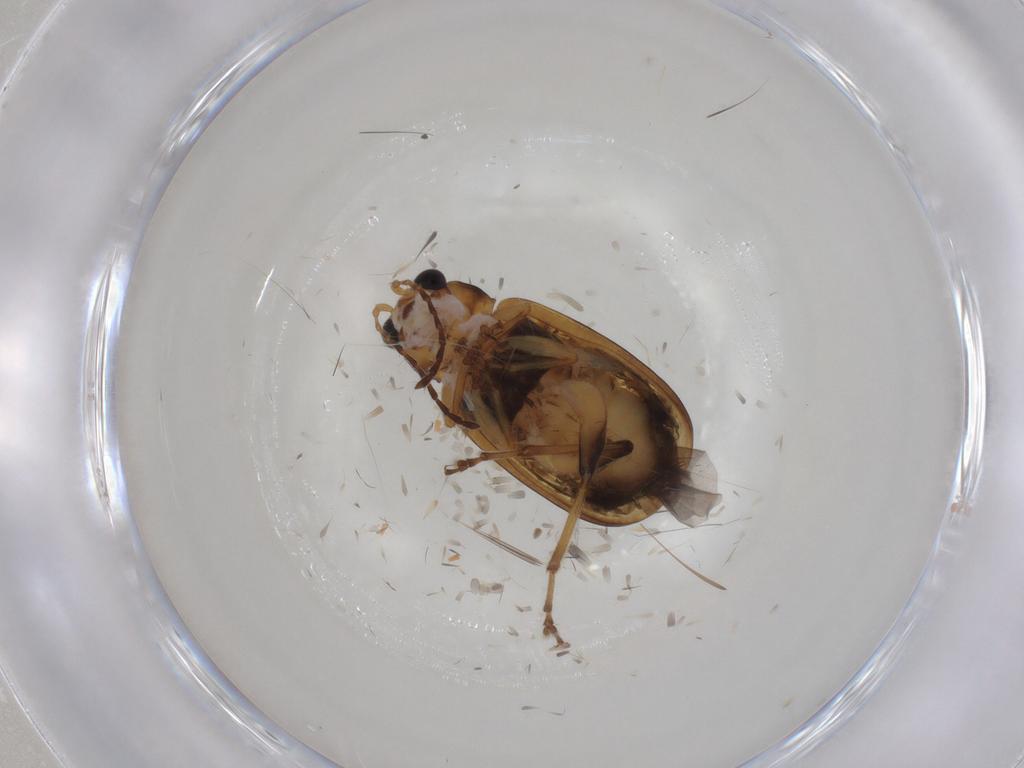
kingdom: Animalia
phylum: Arthropoda
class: Insecta
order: Coleoptera
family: Chrysomelidae
